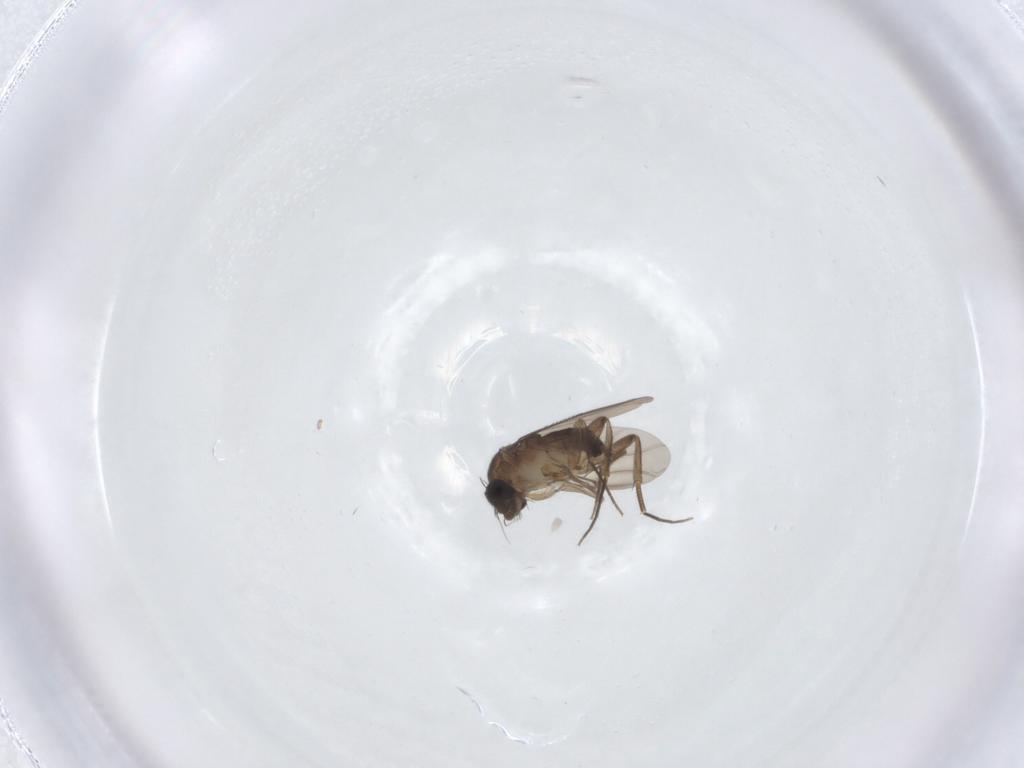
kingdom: Animalia
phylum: Arthropoda
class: Insecta
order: Diptera
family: Phoridae
